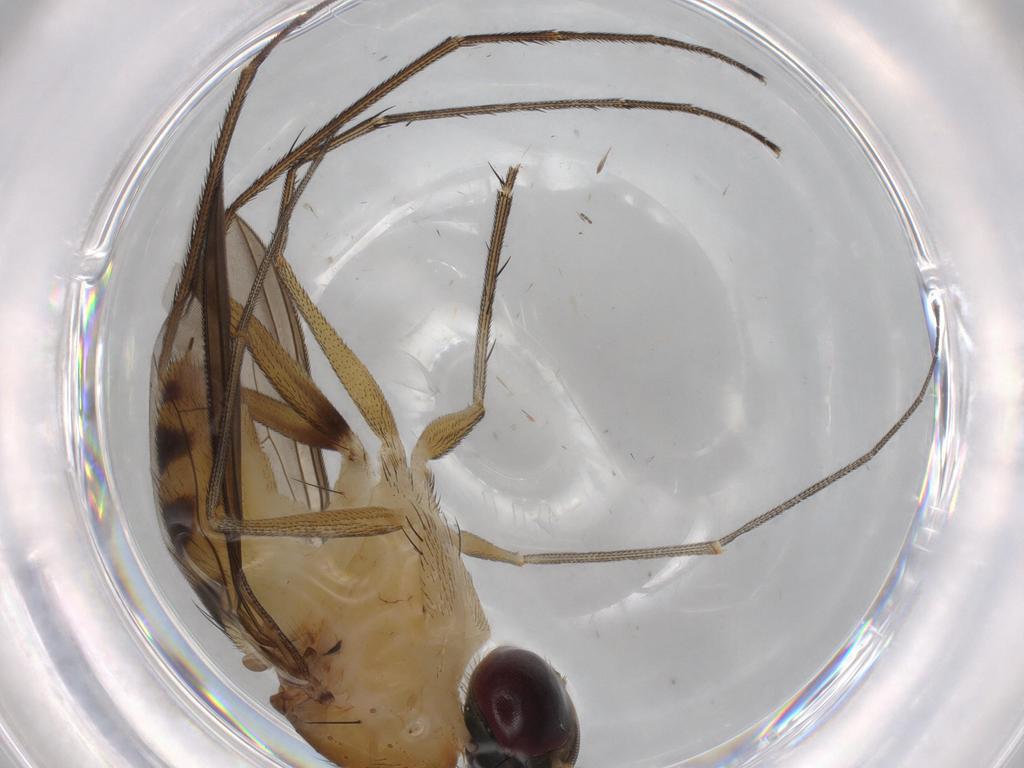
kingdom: Animalia
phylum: Arthropoda
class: Insecta
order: Diptera
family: Dolichopodidae
